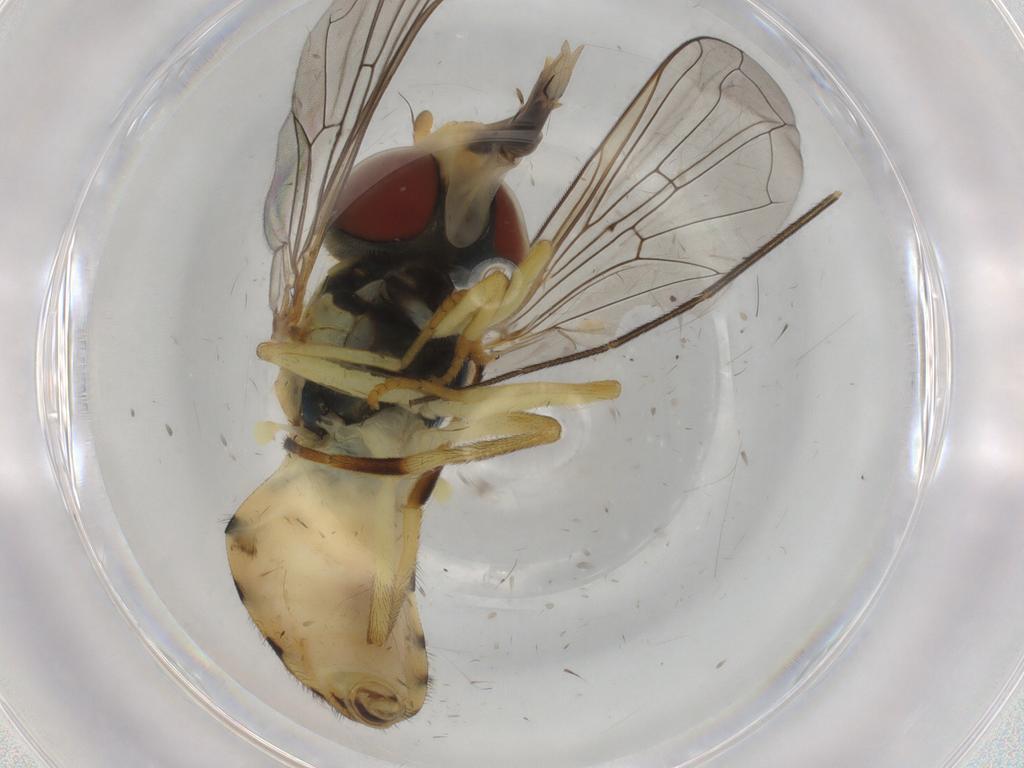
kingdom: Animalia
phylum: Arthropoda
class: Insecta
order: Diptera
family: Syrphidae
